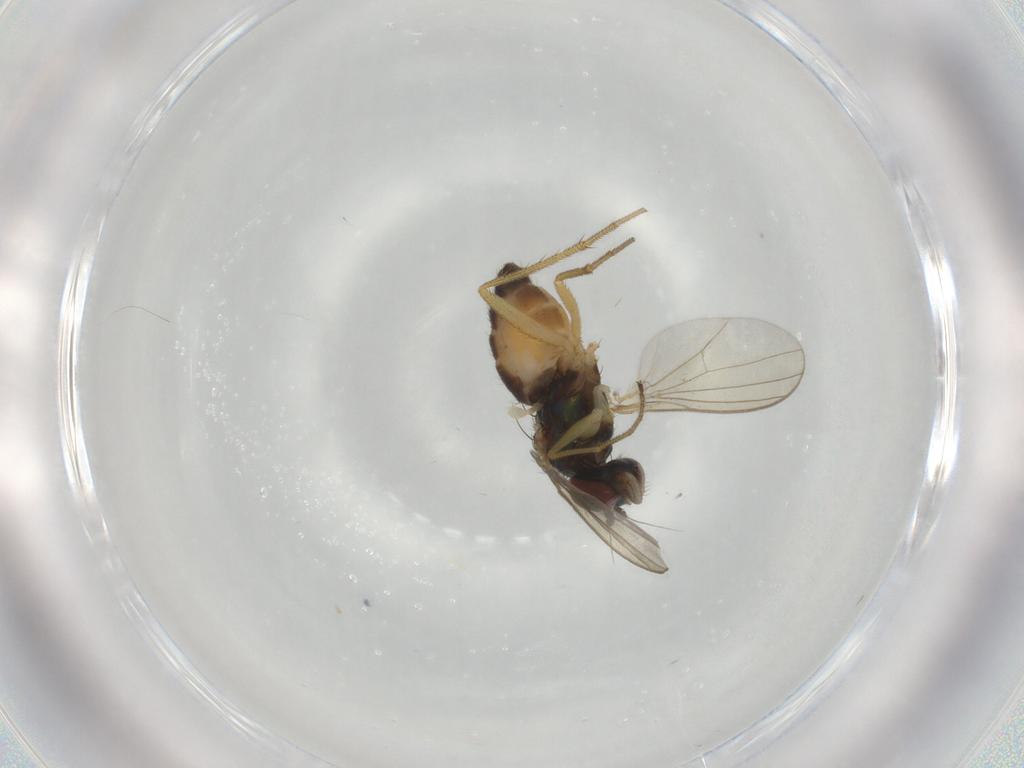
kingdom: Animalia
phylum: Arthropoda
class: Insecta
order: Diptera
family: Dolichopodidae
